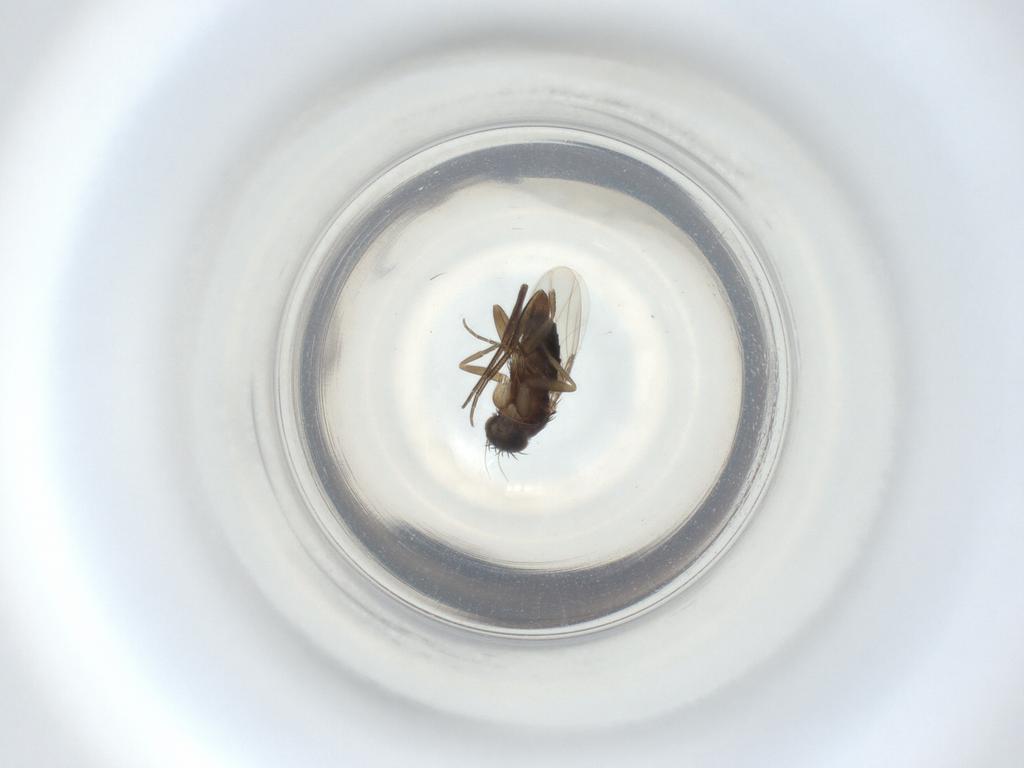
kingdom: Animalia
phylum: Arthropoda
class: Insecta
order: Diptera
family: Phoridae
